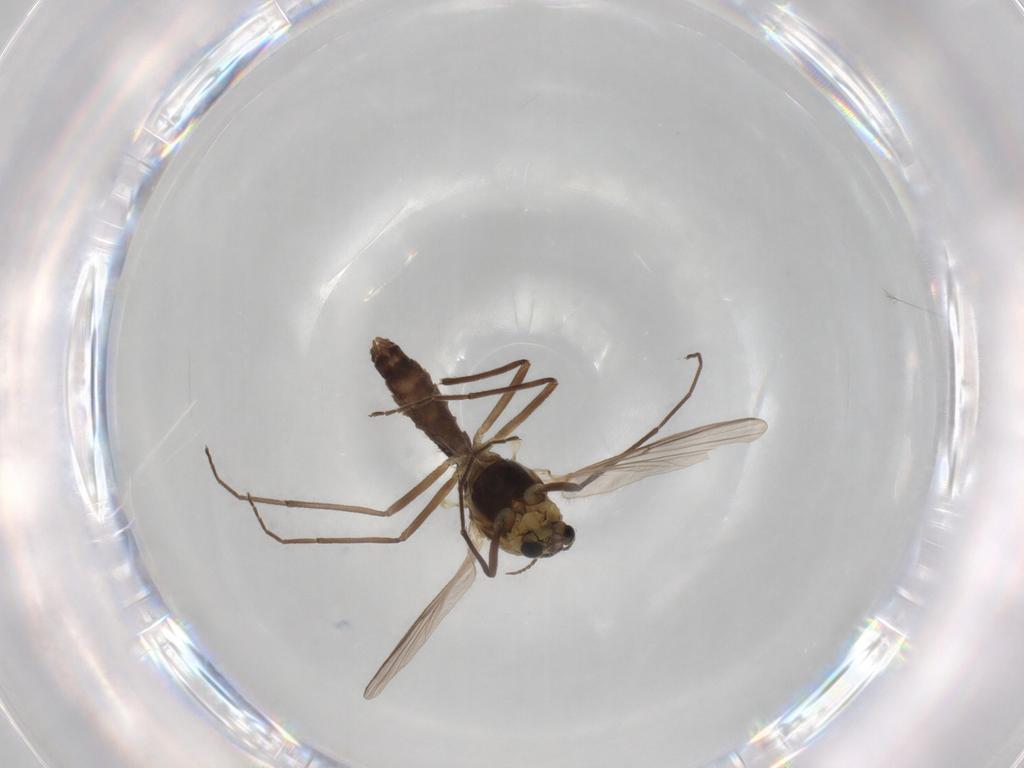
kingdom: Animalia
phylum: Arthropoda
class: Insecta
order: Diptera
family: Chironomidae
